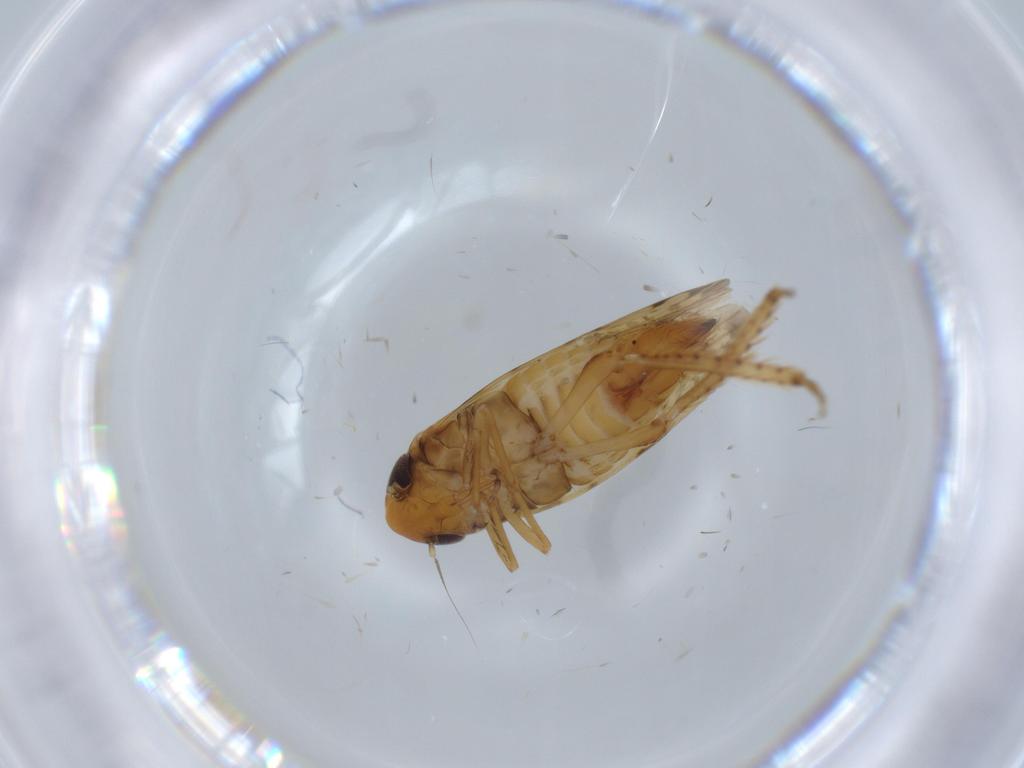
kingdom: Animalia
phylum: Arthropoda
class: Insecta
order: Hemiptera
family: Cicadellidae
